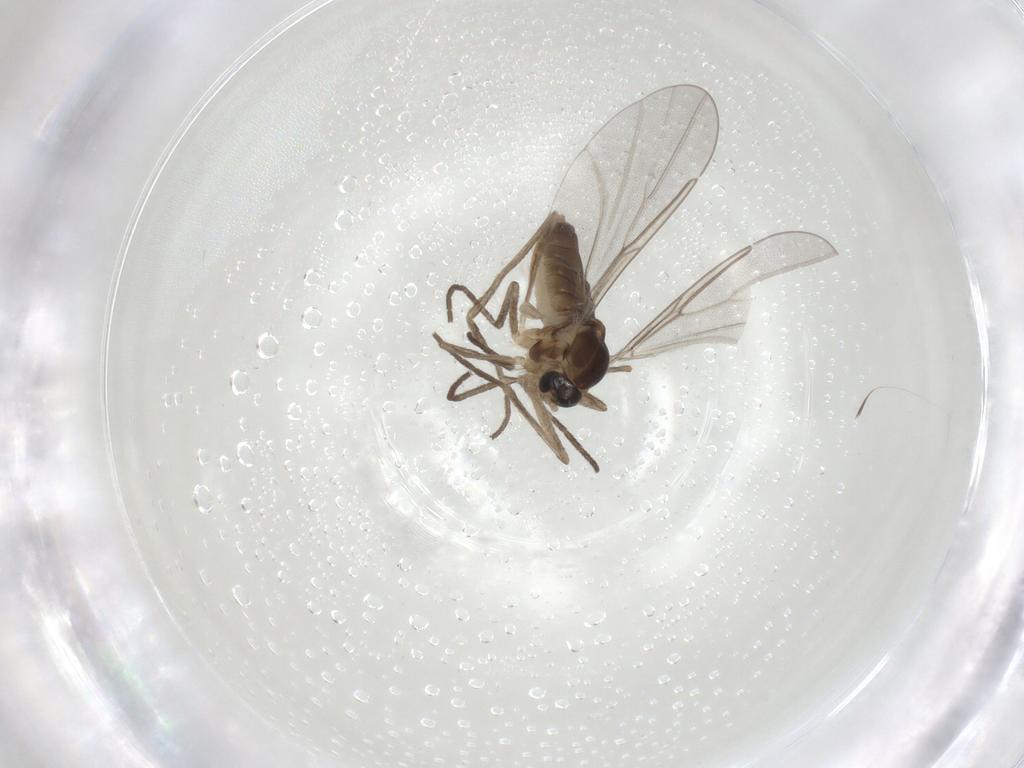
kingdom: Animalia
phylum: Arthropoda
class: Insecta
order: Diptera
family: Cecidomyiidae
